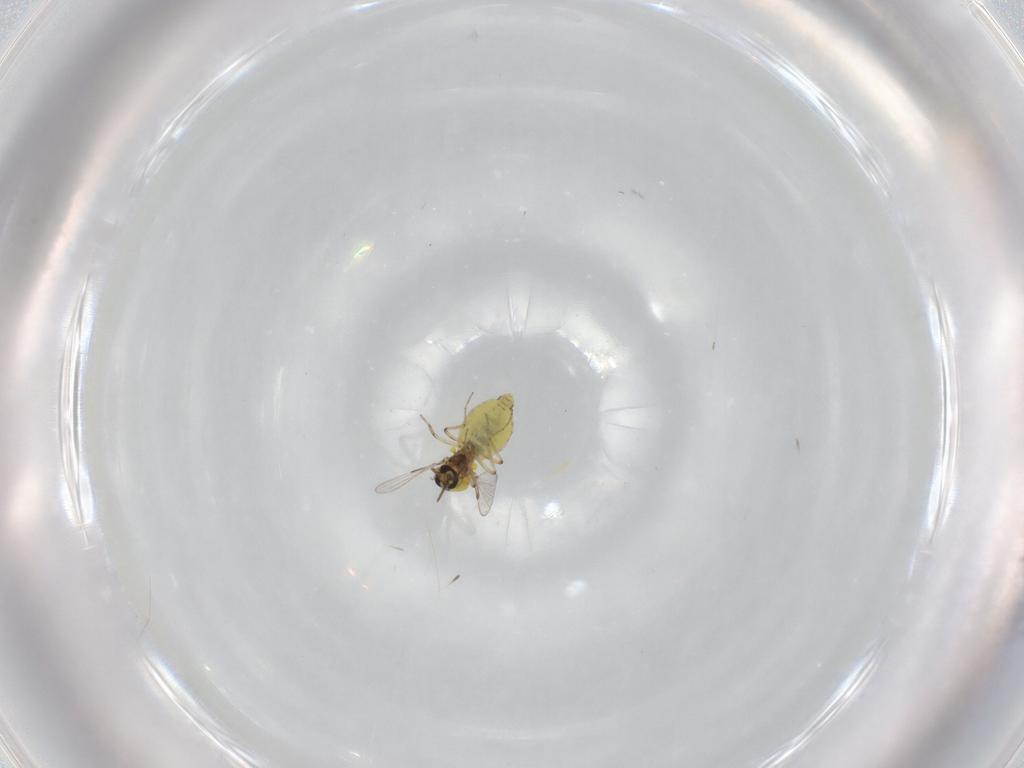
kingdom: Animalia
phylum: Arthropoda
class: Insecta
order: Diptera
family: Ceratopogonidae
